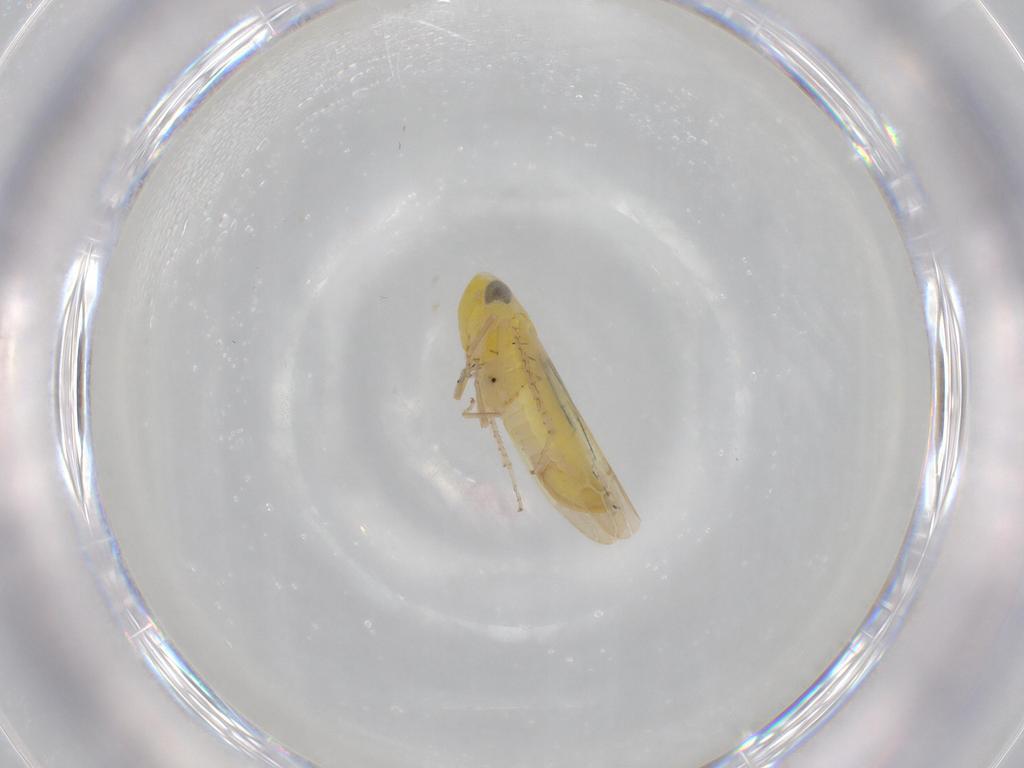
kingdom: Animalia
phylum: Arthropoda
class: Insecta
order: Hemiptera
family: Cicadellidae
